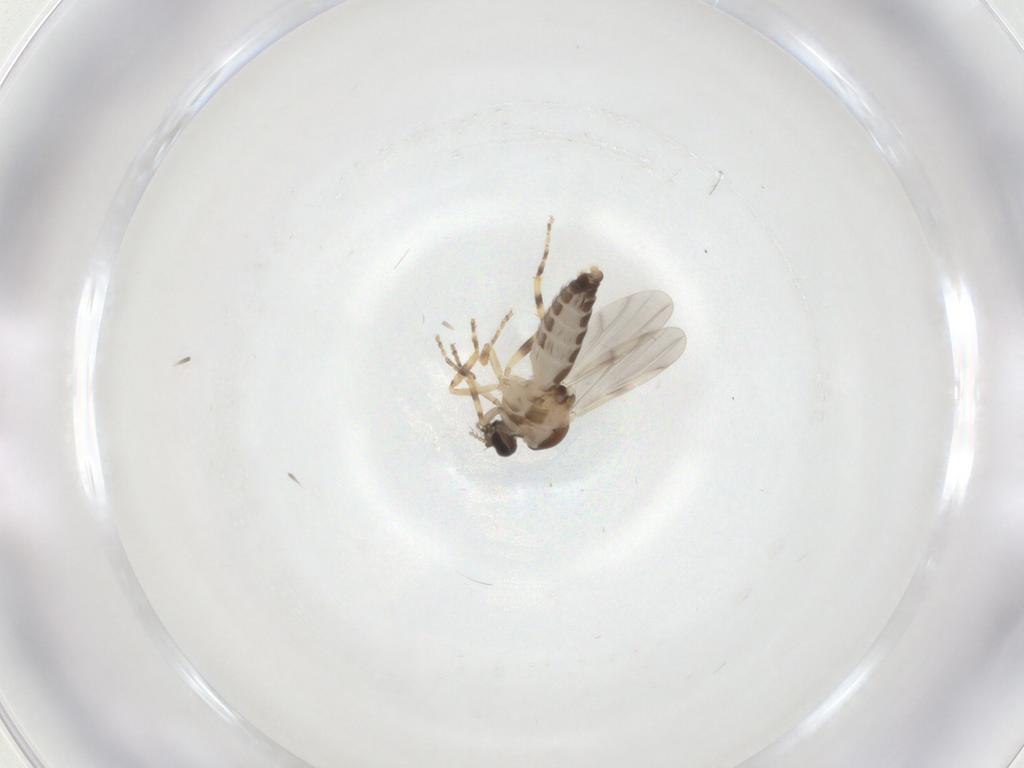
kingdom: Animalia
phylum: Arthropoda
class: Insecta
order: Diptera
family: Ceratopogonidae
